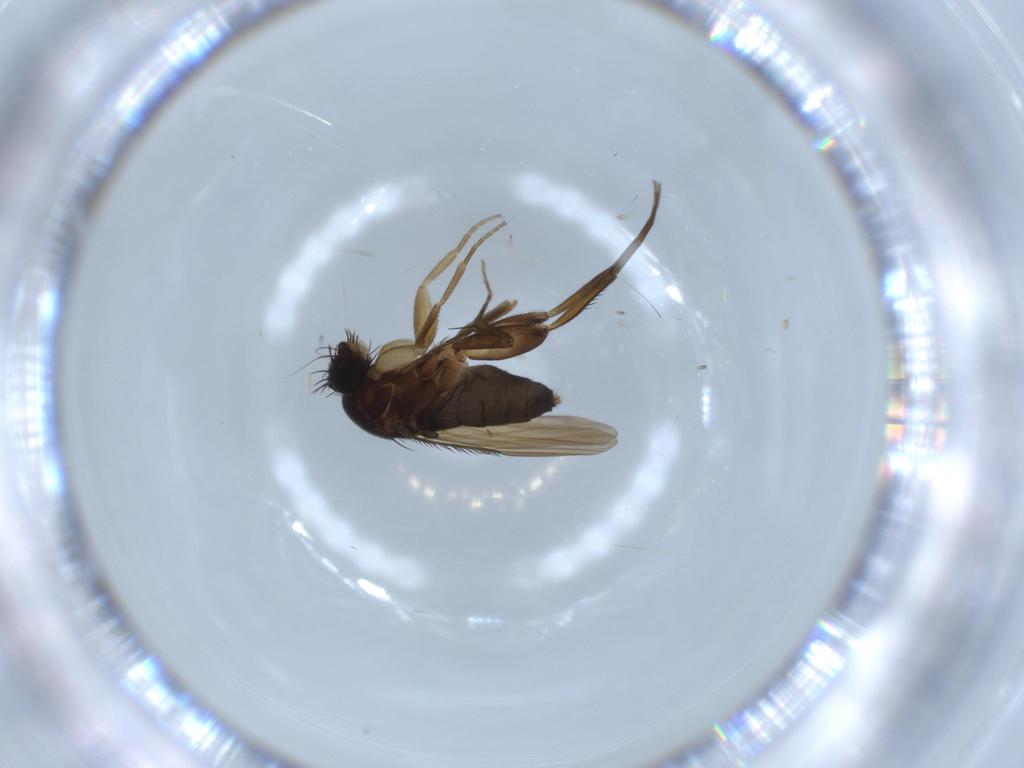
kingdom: Animalia
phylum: Arthropoda
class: Insecta
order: Diptera
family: Phoridae
